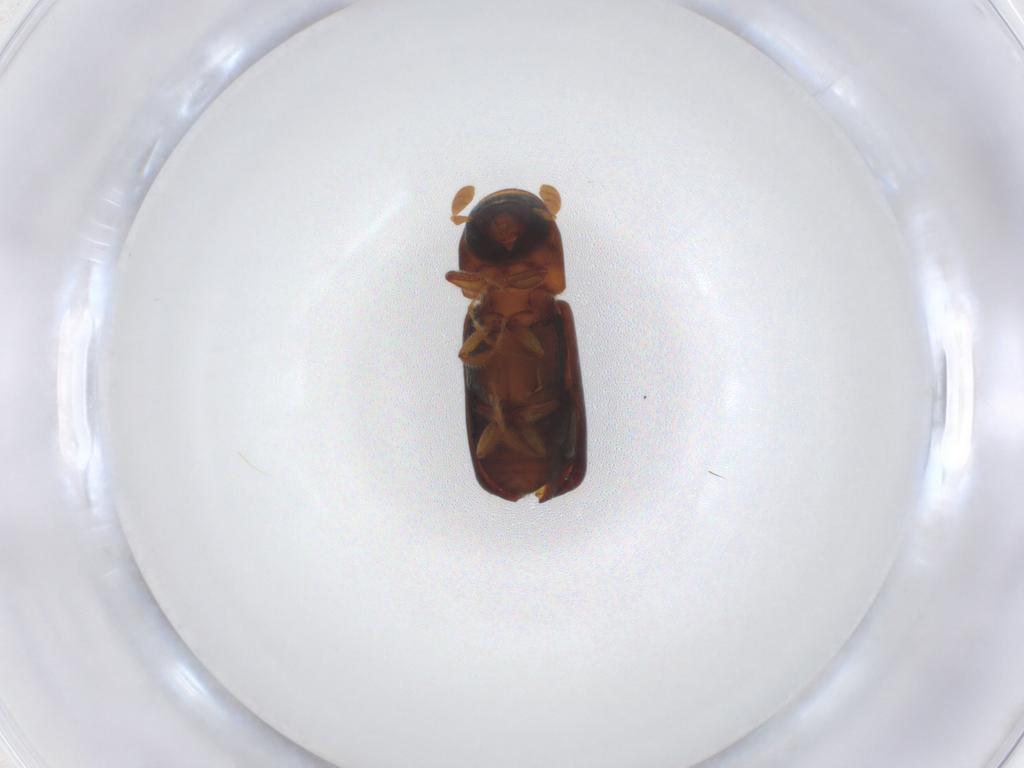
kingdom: Animalia
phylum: Arthropoda
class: Insecta
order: Coleoptera
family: Curculionidae
